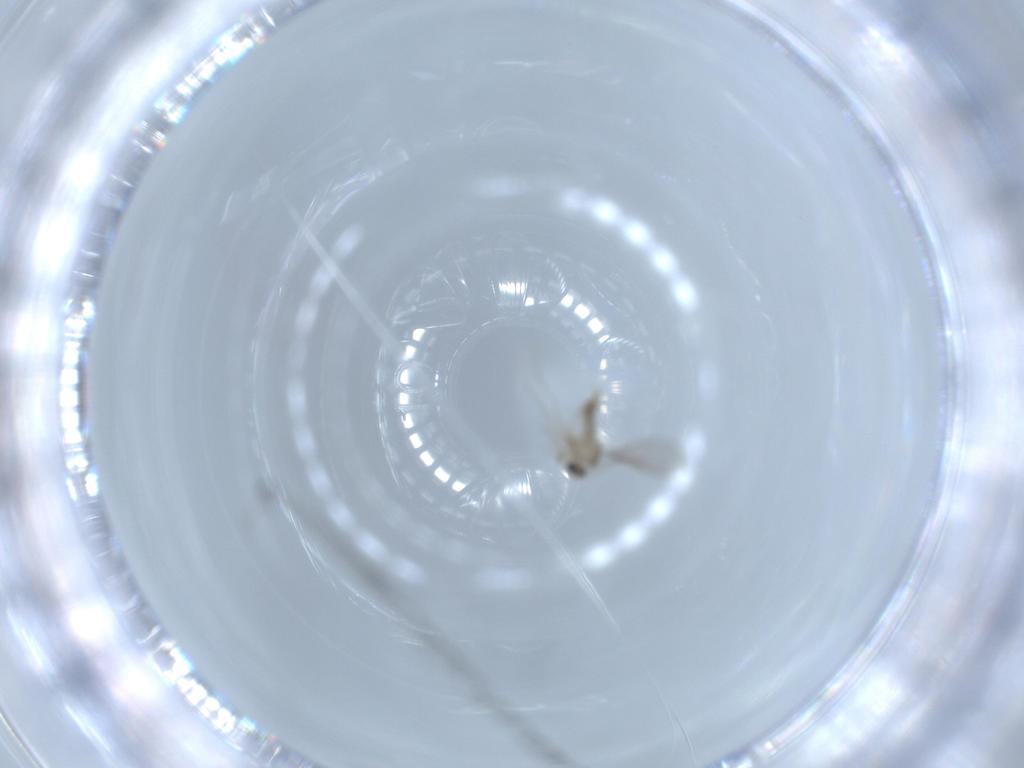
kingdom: Animalia
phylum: Arthropoda
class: Insecta
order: Diptera
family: Cecidomyiidae
